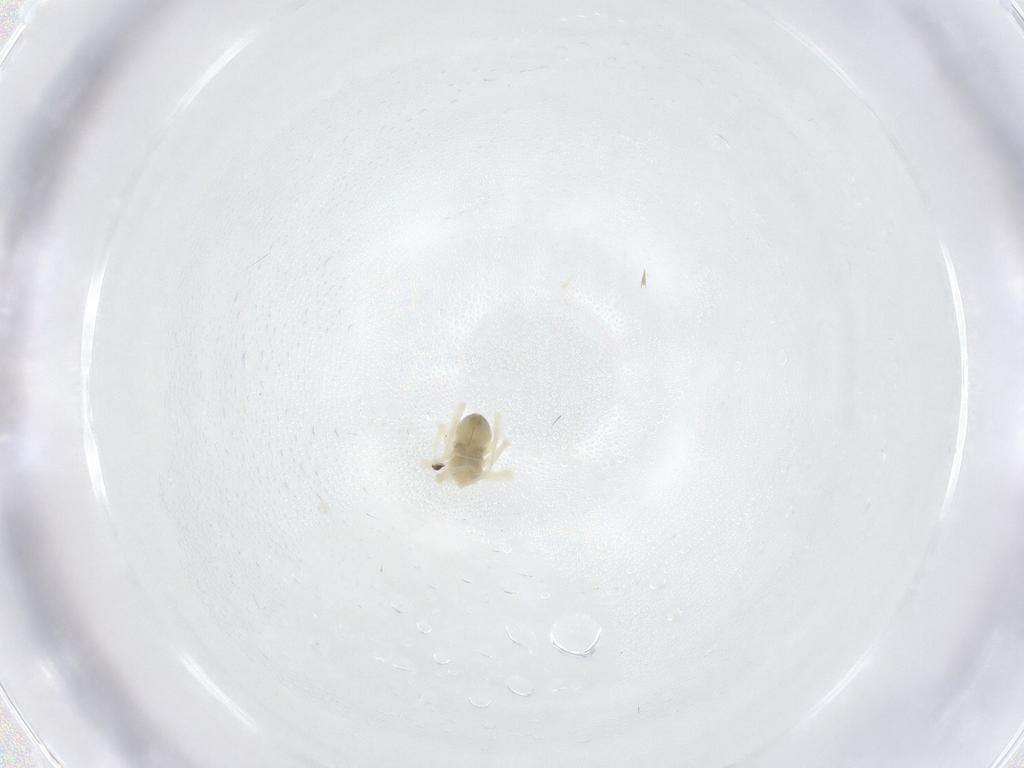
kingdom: Animalia
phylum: Arthropoda
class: Arachnida
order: Trombidiformes
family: Anystidae
